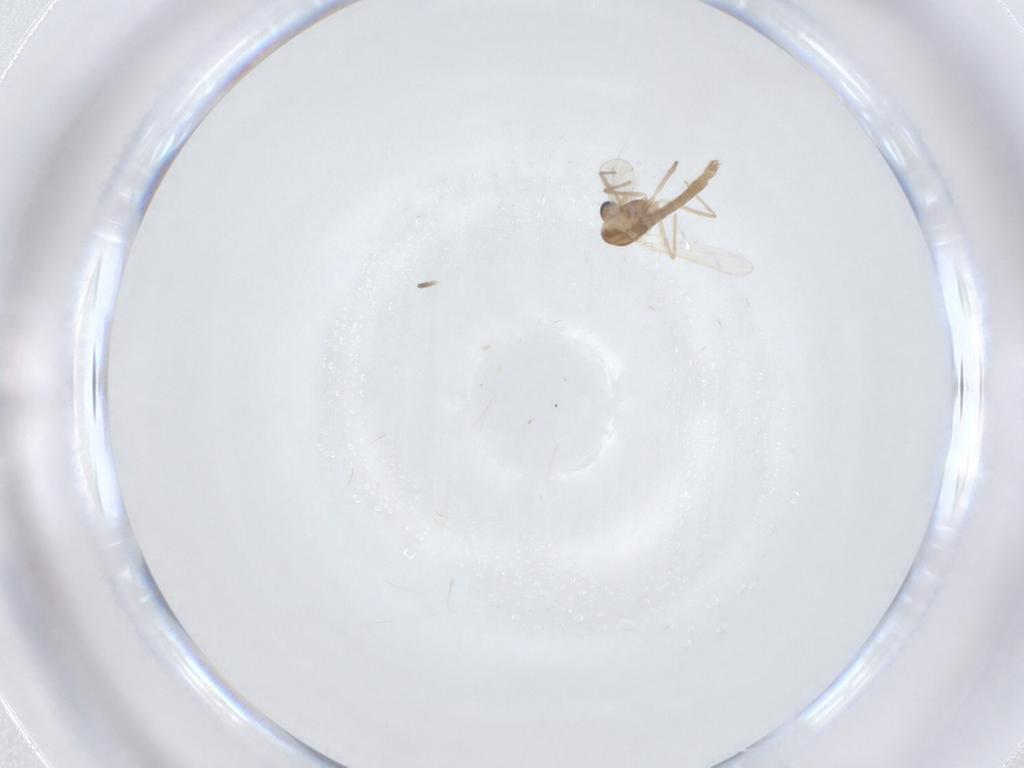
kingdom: Animalia
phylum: Arthropoda
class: Insecta
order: Diptera
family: Chironomidae
